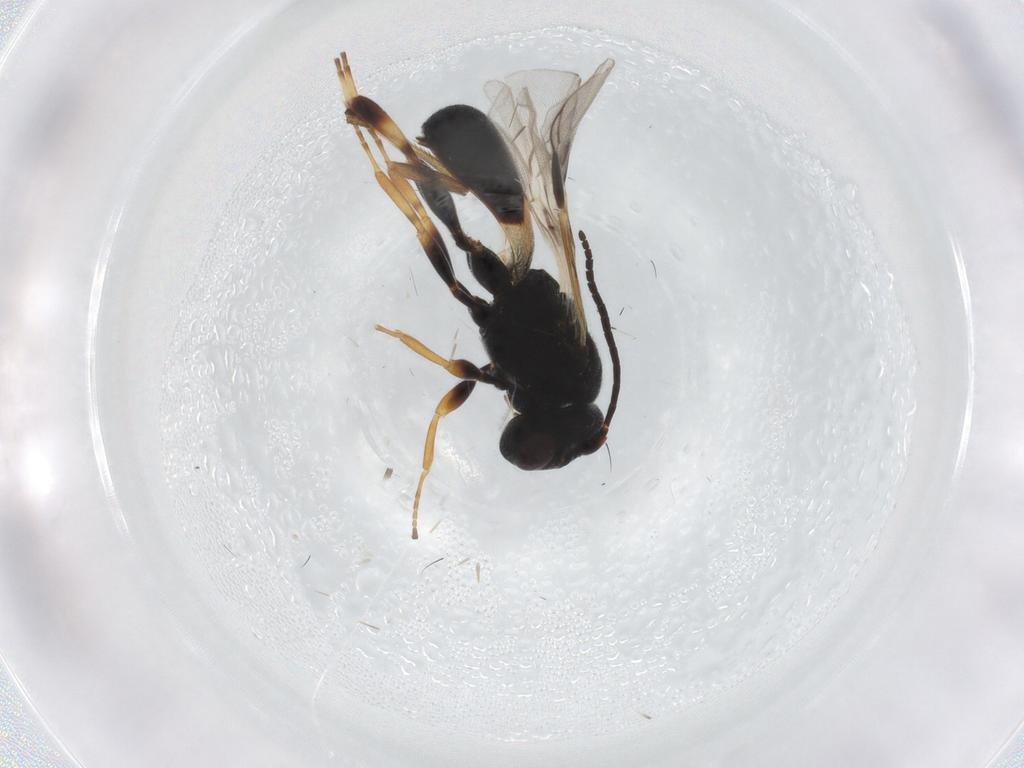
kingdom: Animalia
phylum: Arthropoda
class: Insecta
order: Hymenoptera
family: Braconidae
